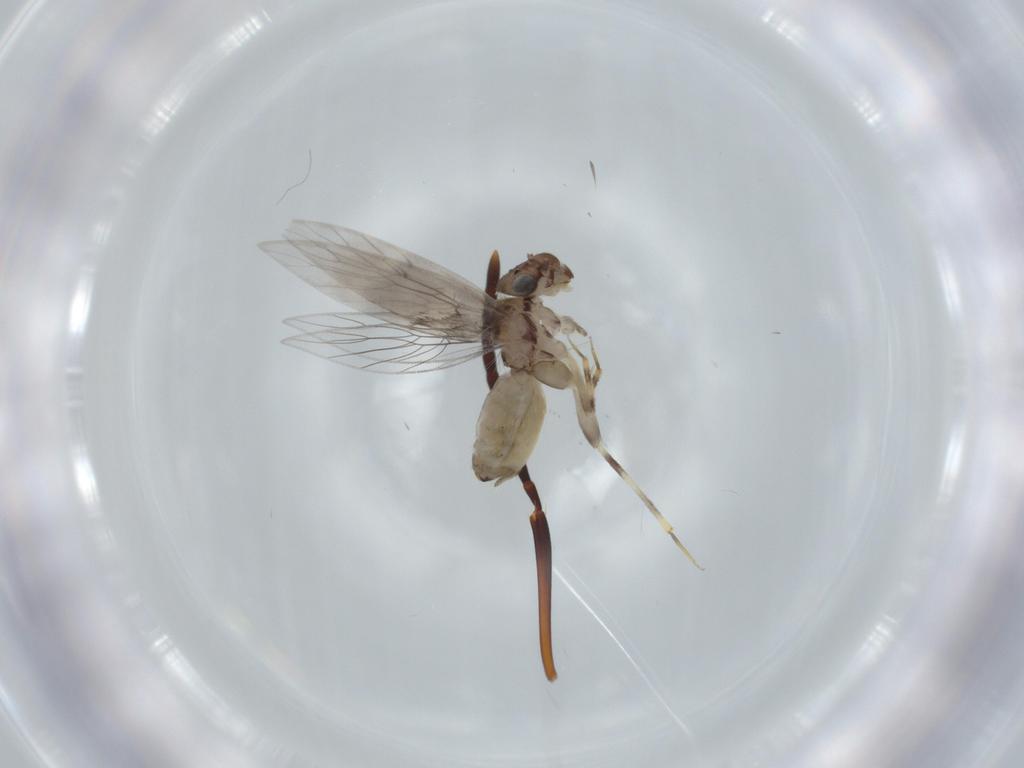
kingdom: Animalia
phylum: Arthropoda
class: Insecta
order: Psocodea
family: Lepidopsocidae
